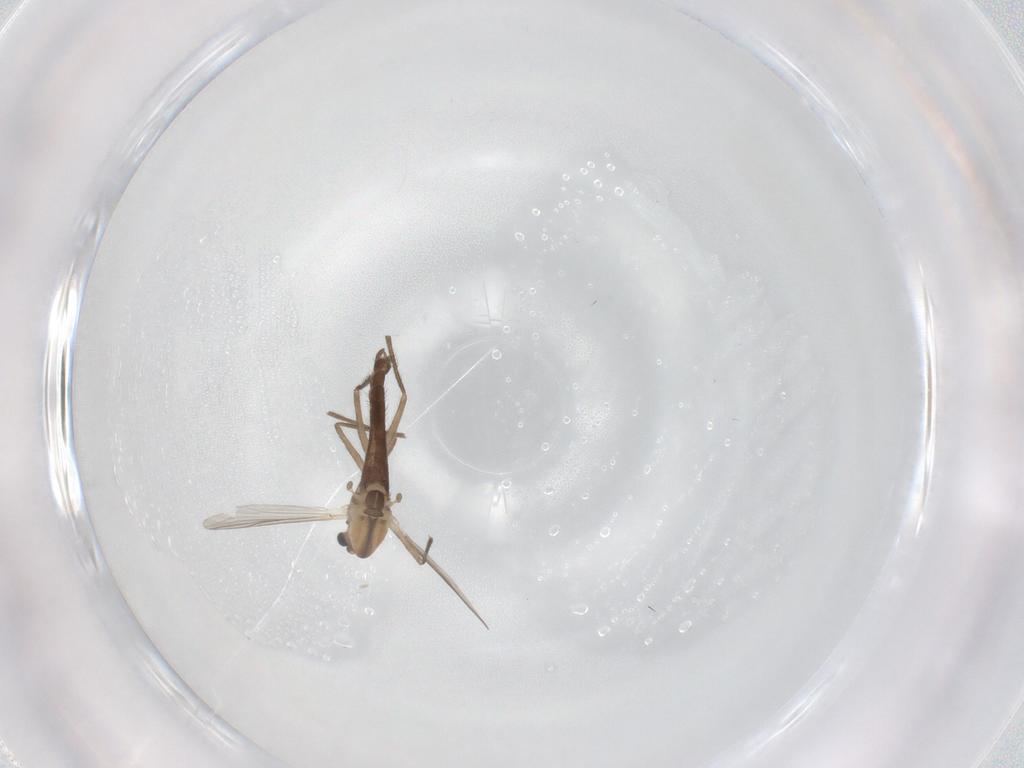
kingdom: Animalia
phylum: Arthropoda
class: Insecta
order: Diptera
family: Chironomidae
